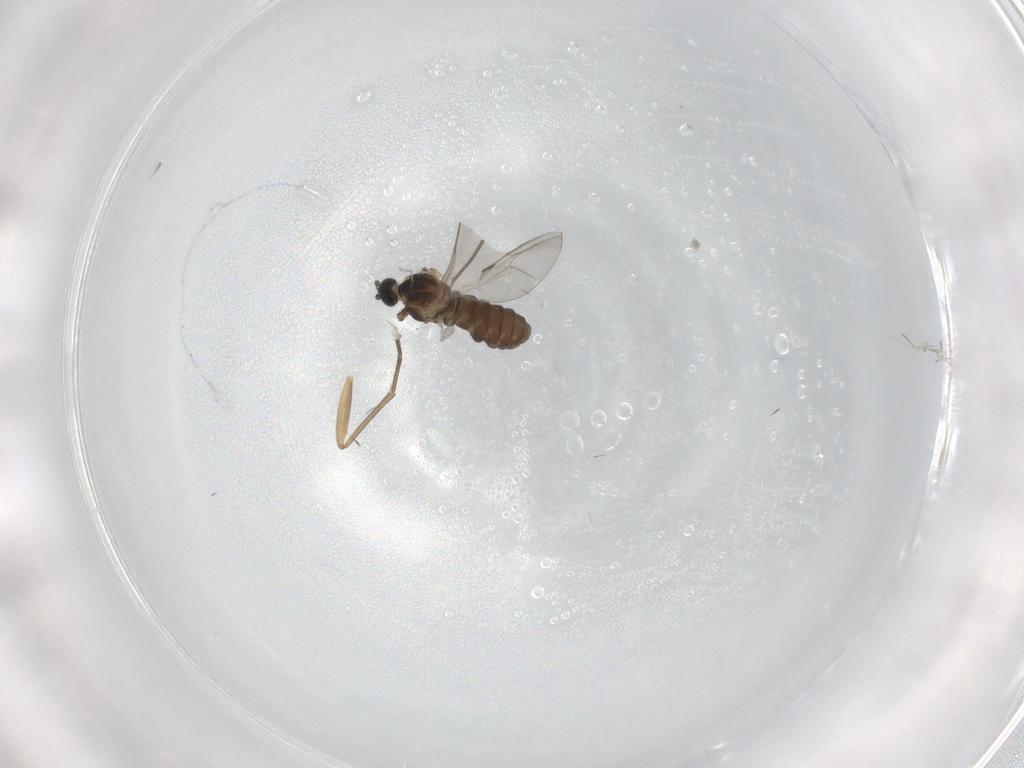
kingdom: Animalia
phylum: Arthropoda
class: Insecta
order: Diptera
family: Cecidomyiidae
